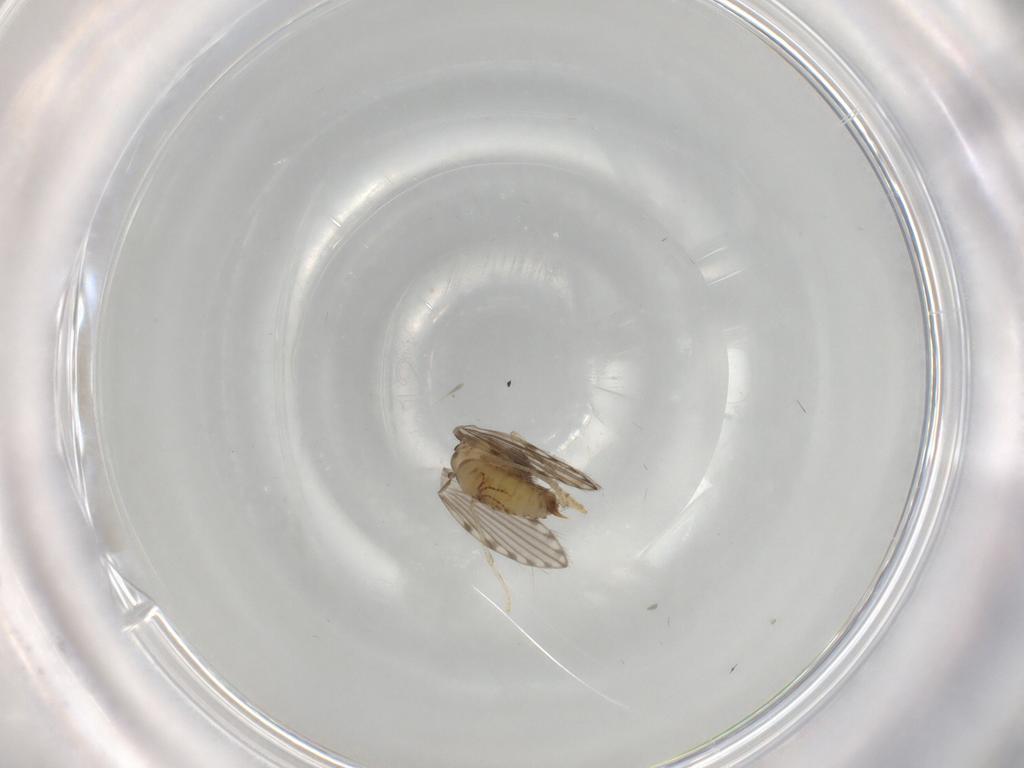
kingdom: Animalia
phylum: Arthropoda
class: Insecta
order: Diptera
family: Psychodidae
